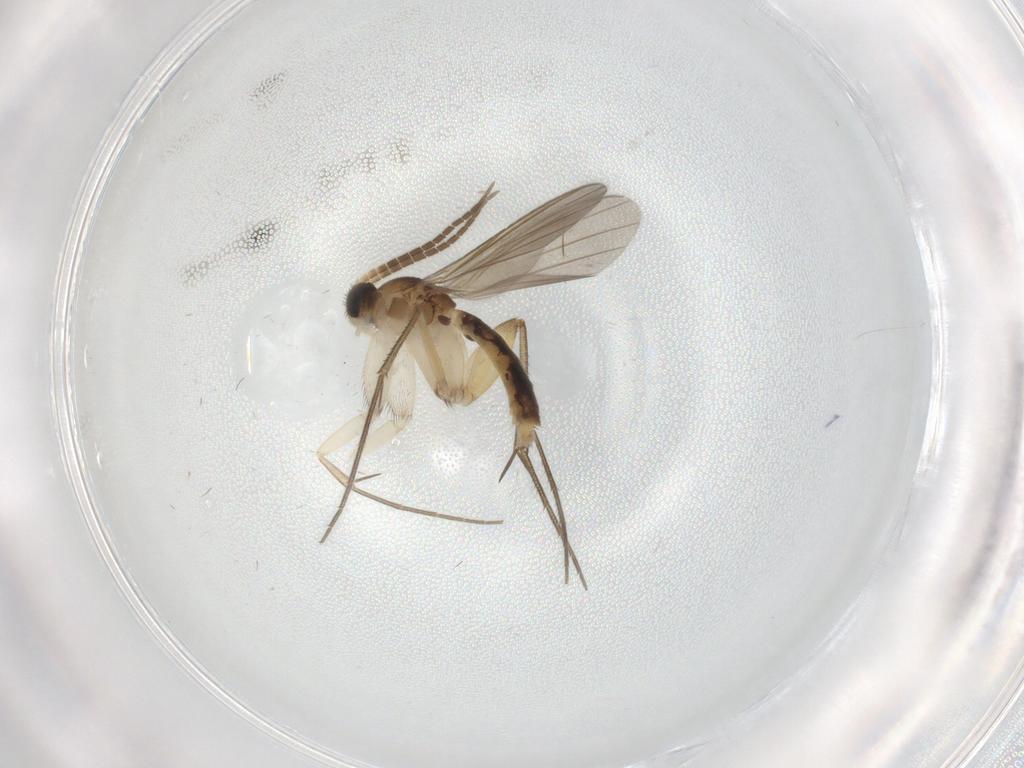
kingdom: Animalia
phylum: Arthropoda
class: Insecta
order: Diptera
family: Mycetophilidae
